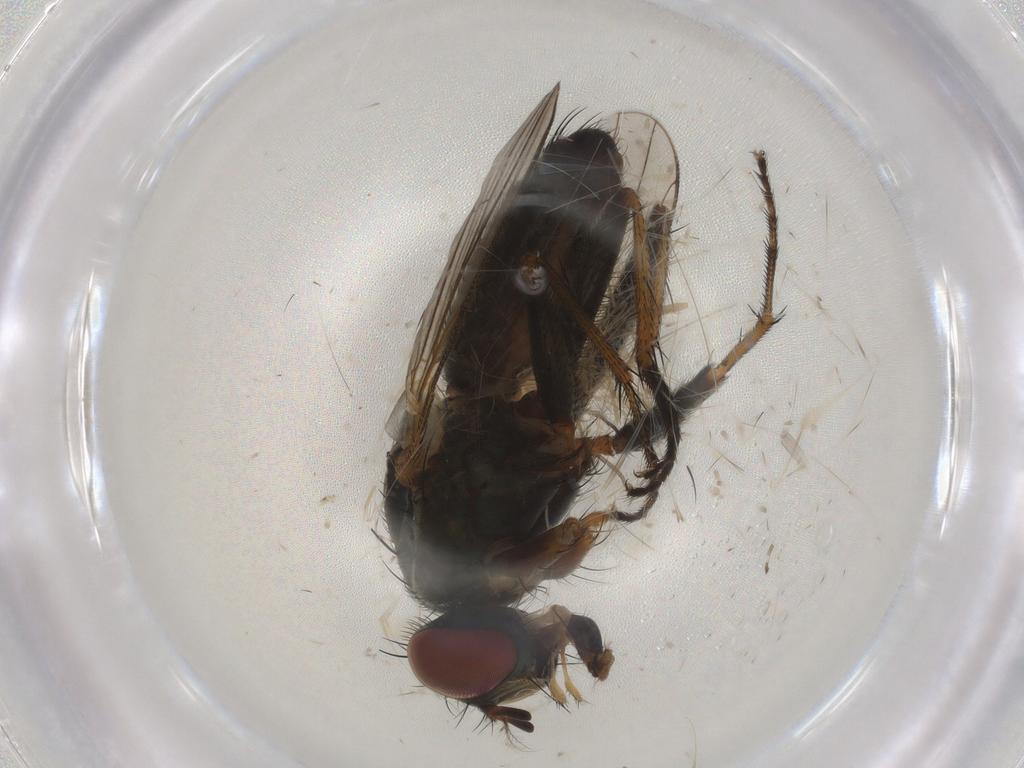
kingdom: Animalia
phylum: Arthropoda
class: Insecta
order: Diptera
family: Muscidae
